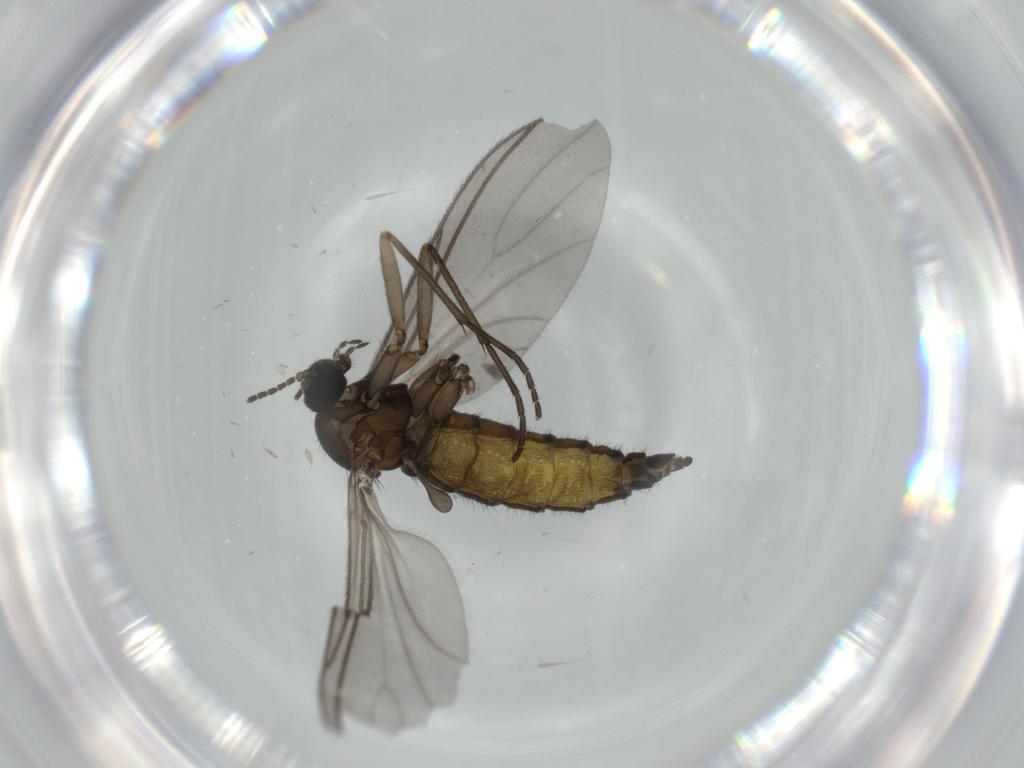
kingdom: Animalia
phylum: Arthropoda
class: Insecta
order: Diptera
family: Sciaridae
